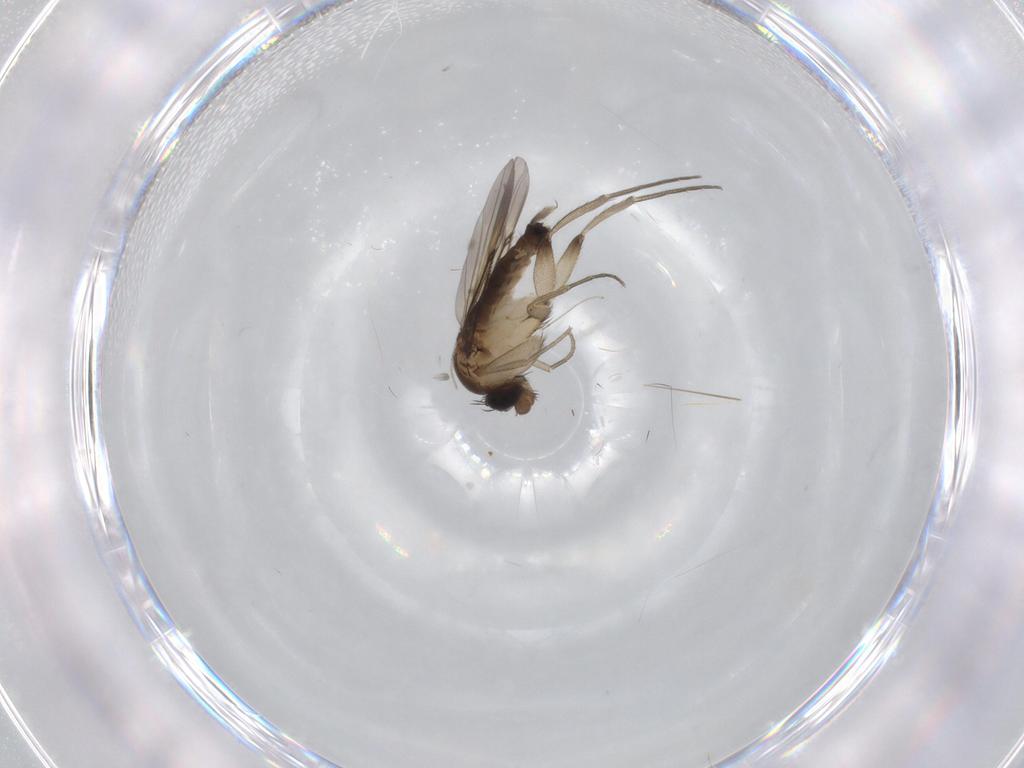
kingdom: Animalia
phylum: Arthropoda
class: Insecta
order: Diptera
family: Phoridae
